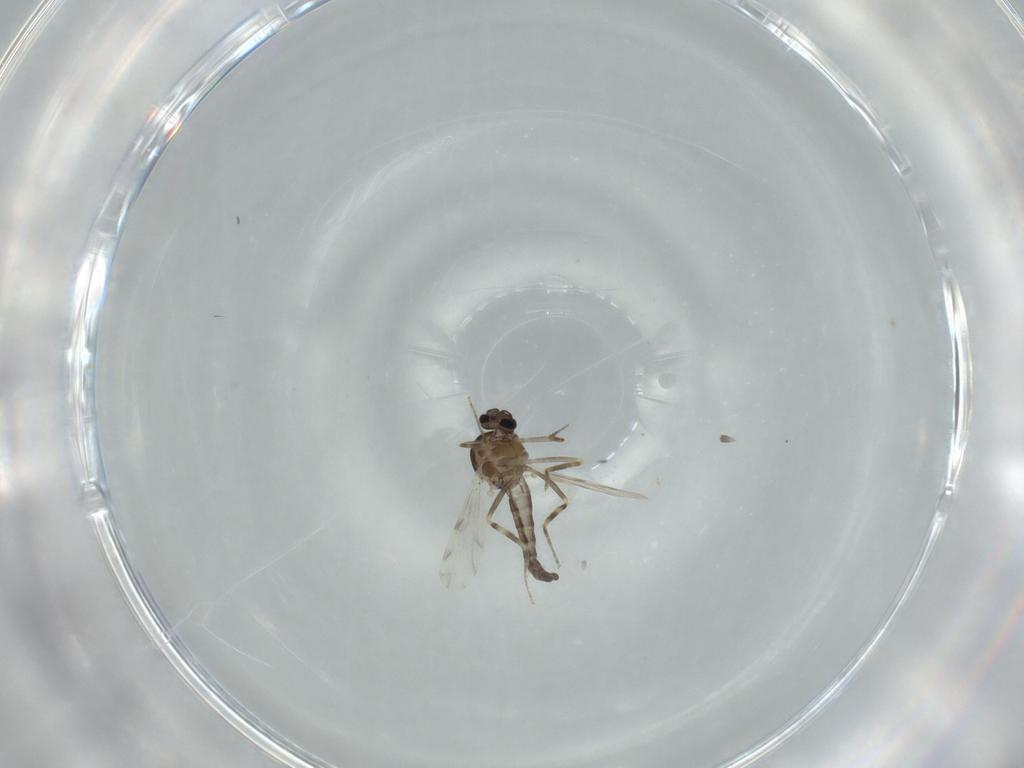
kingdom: Animalia
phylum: Arthropoda
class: Insecta
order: Diptera
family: Ceratopogonidae
